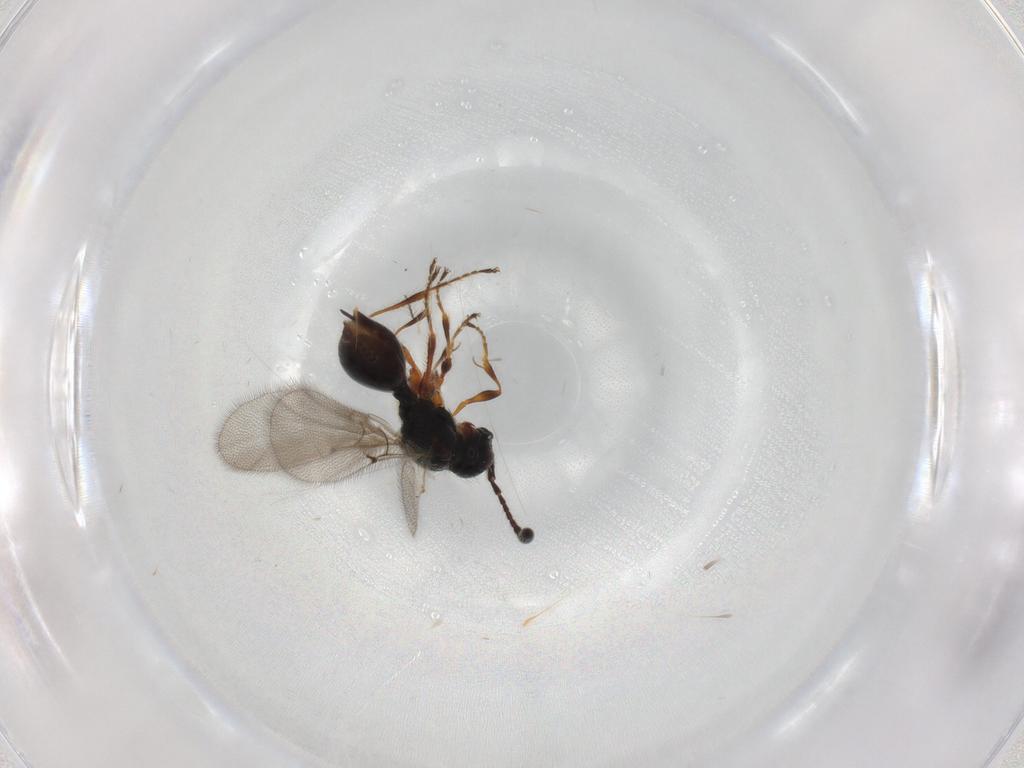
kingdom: Animalia
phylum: Arthropoda
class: Insecta
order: Hymenoptera
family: Diapriidae
